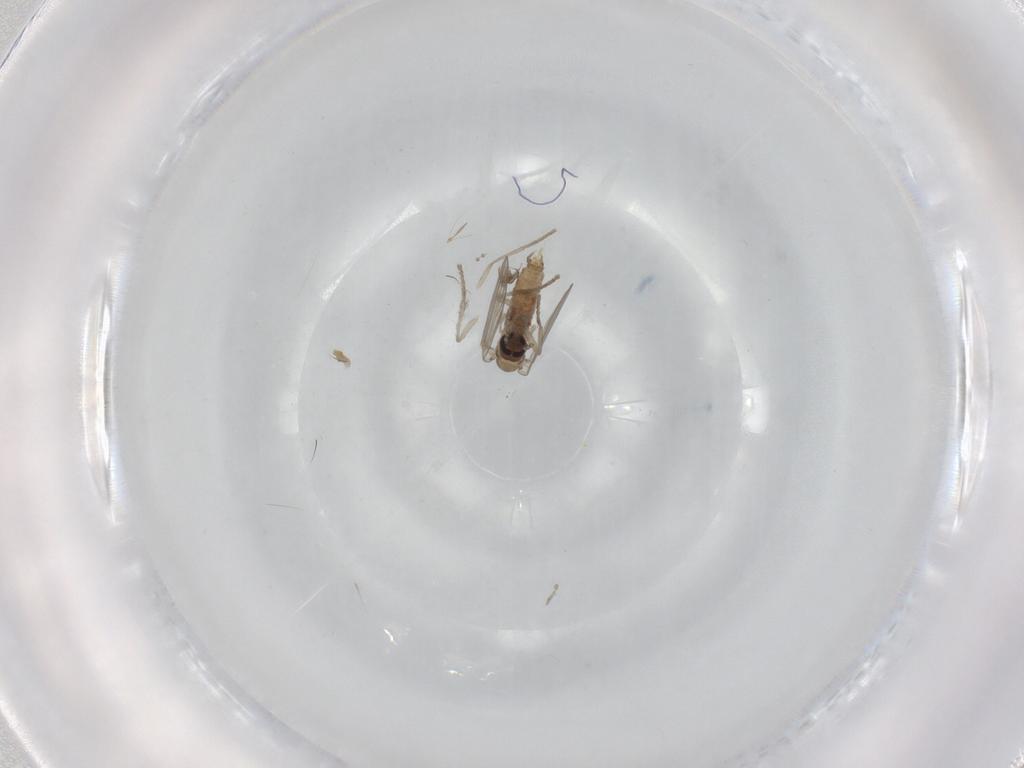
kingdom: Animalia
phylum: Arthropoda
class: Insecta
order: Diptera
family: Psychodidae
